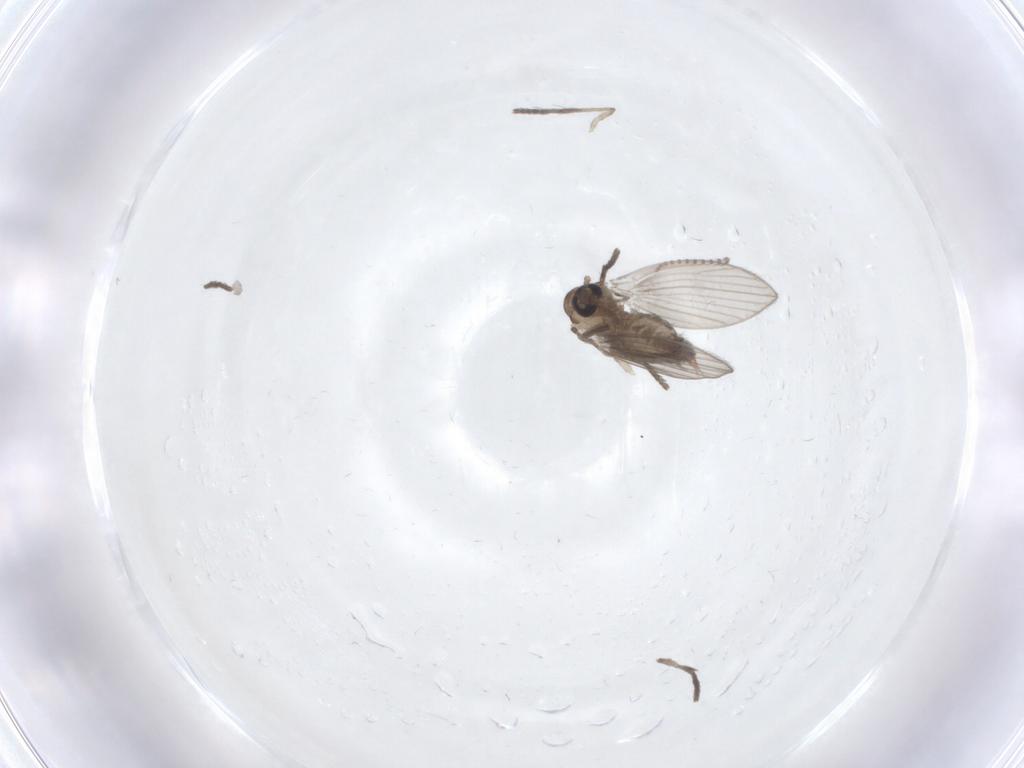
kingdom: Animalia
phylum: Arthropoda
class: Insecta
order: Diptera
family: Psychodidae
